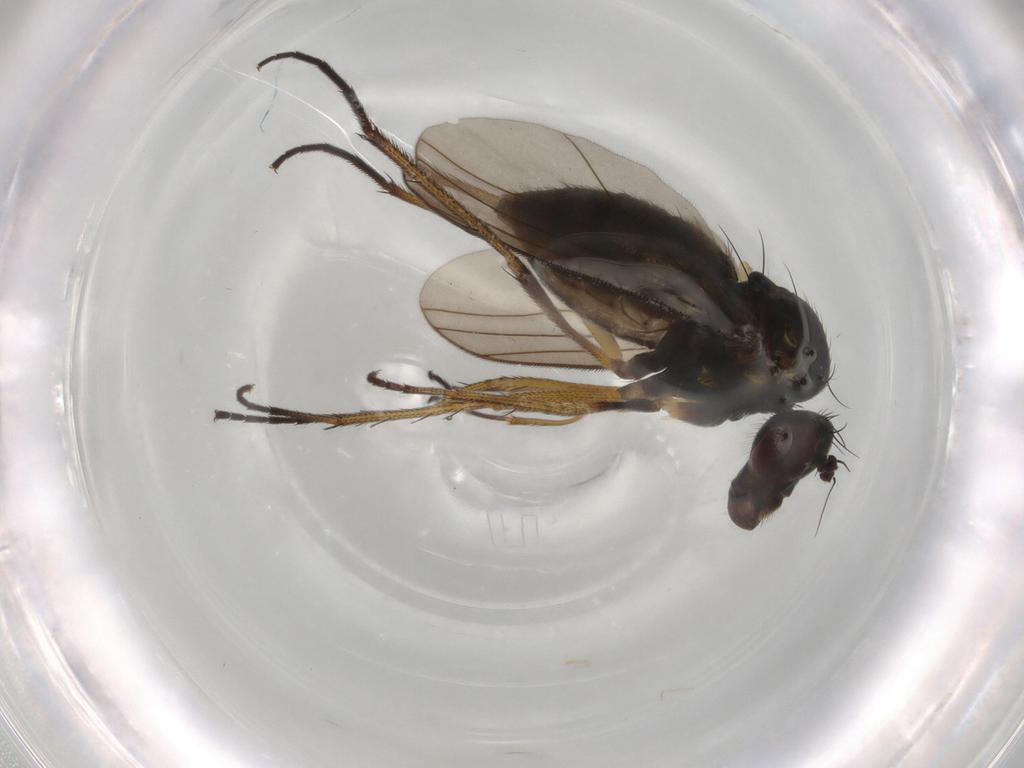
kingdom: Animalia
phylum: Arthropoda
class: Insecta
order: Diptera
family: Dolichopodidae
